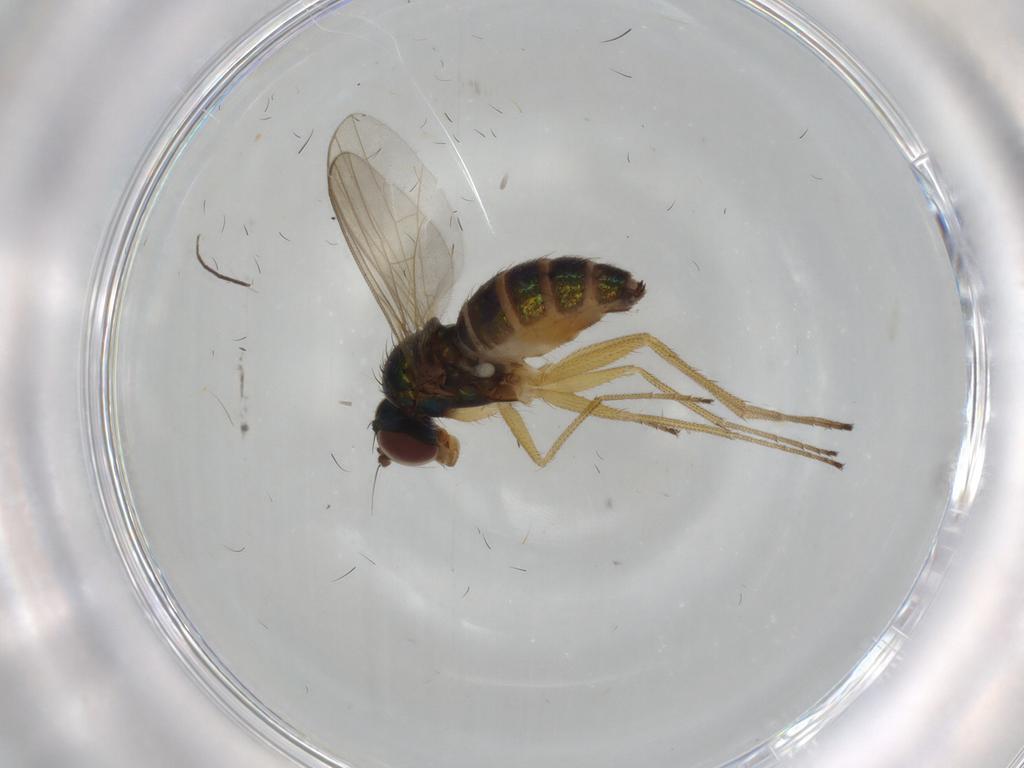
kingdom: Animalia
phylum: Arthropoda
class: Insecta
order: Diptera
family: Dolichopodidae
